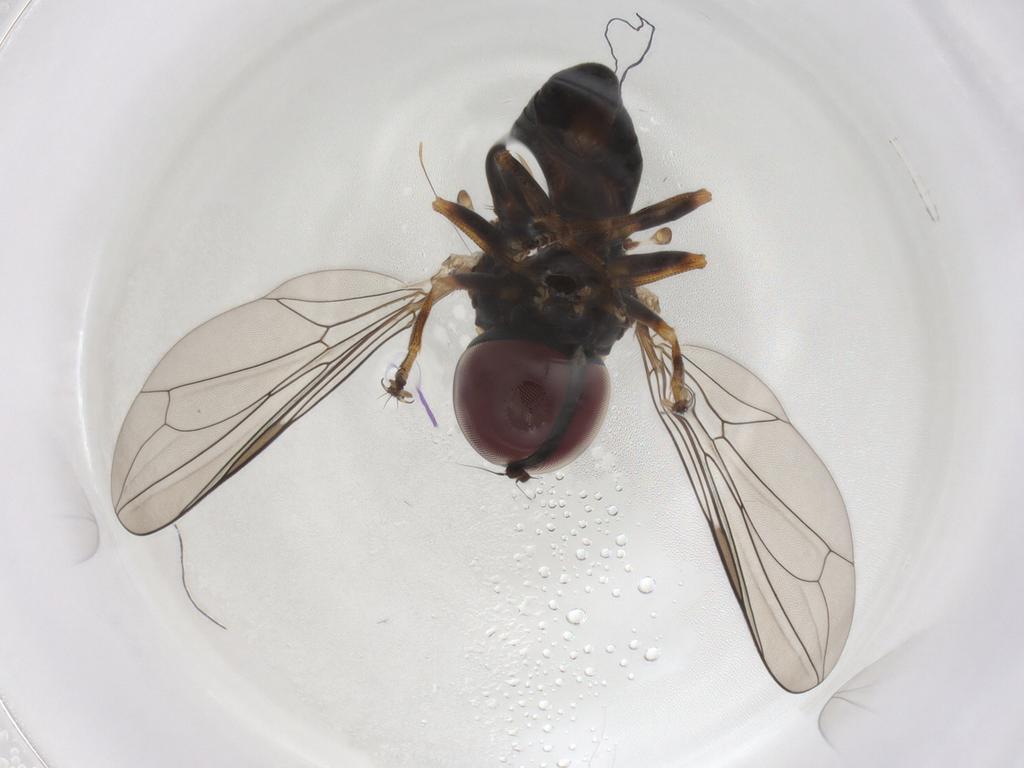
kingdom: Animalia
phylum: Arthropoda
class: Insecta
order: Diptera
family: Pipunculidae
